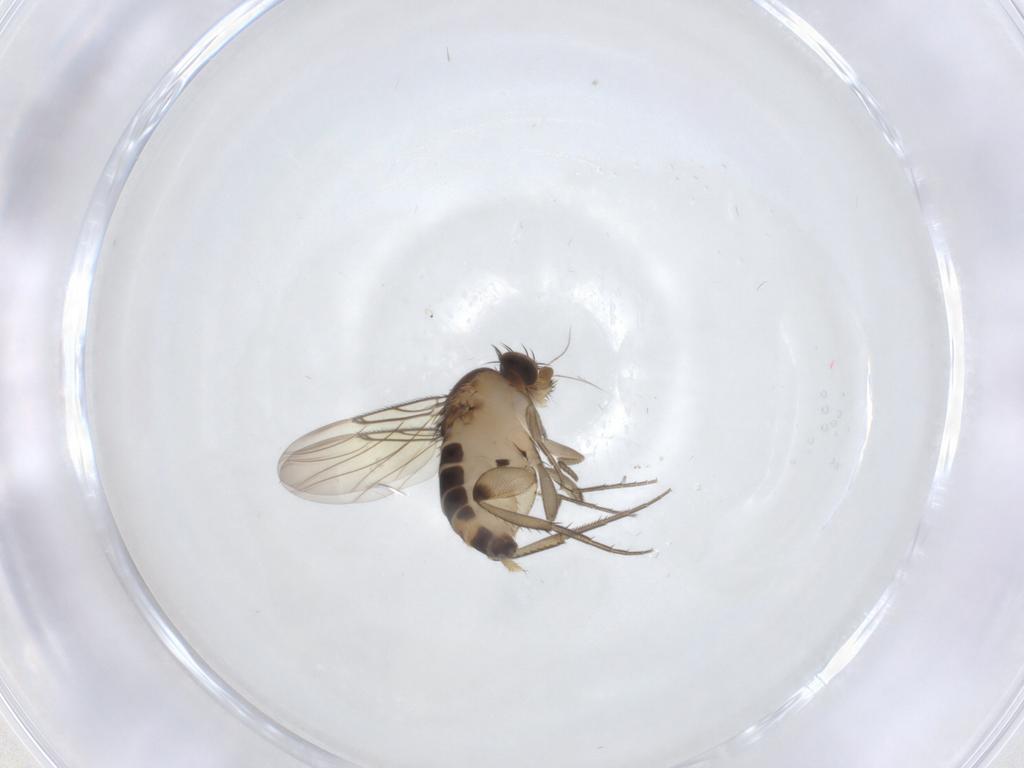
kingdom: Animalia
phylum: Arthropoda
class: Insecta
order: Diptera
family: Phoridae
